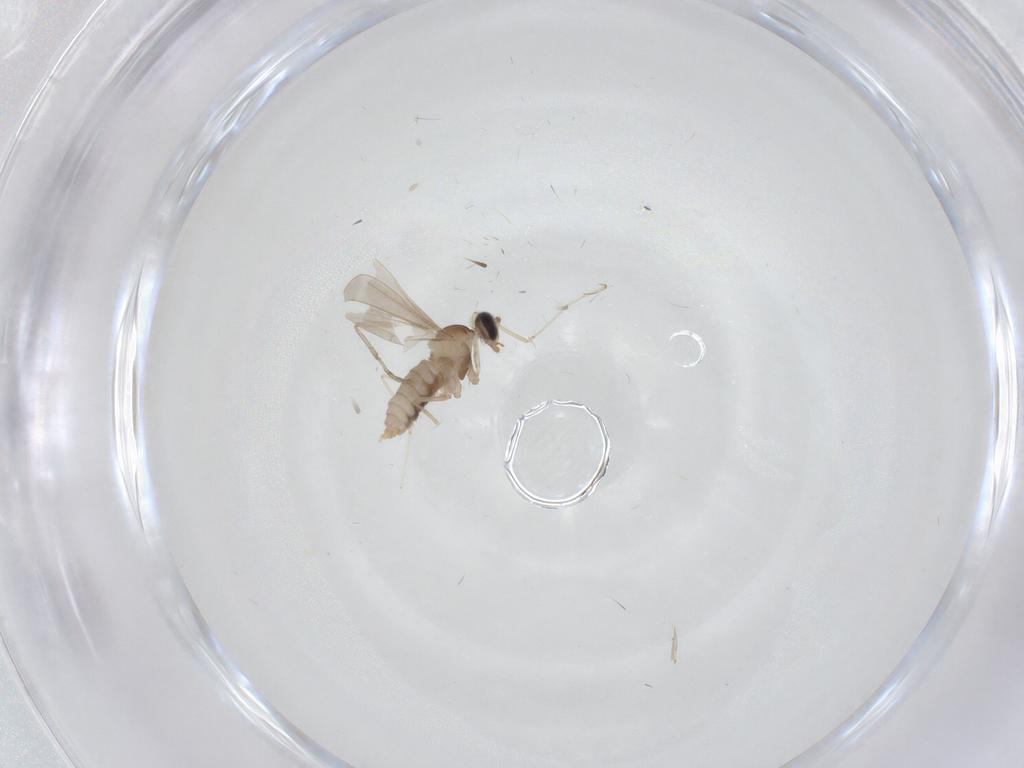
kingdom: Animalia
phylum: Arthropoda
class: Insecta
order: Diptera
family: Cecidomyiidae
